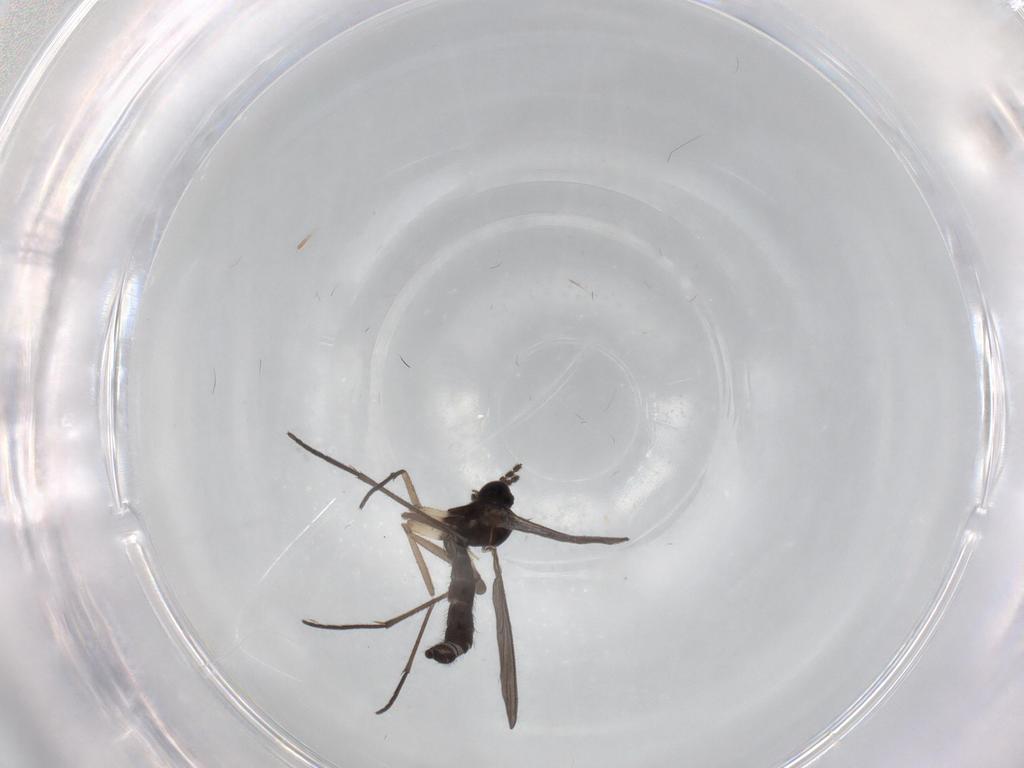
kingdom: Animalia
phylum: Arthropoda
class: Insecta
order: Diptera
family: Sciaridae
